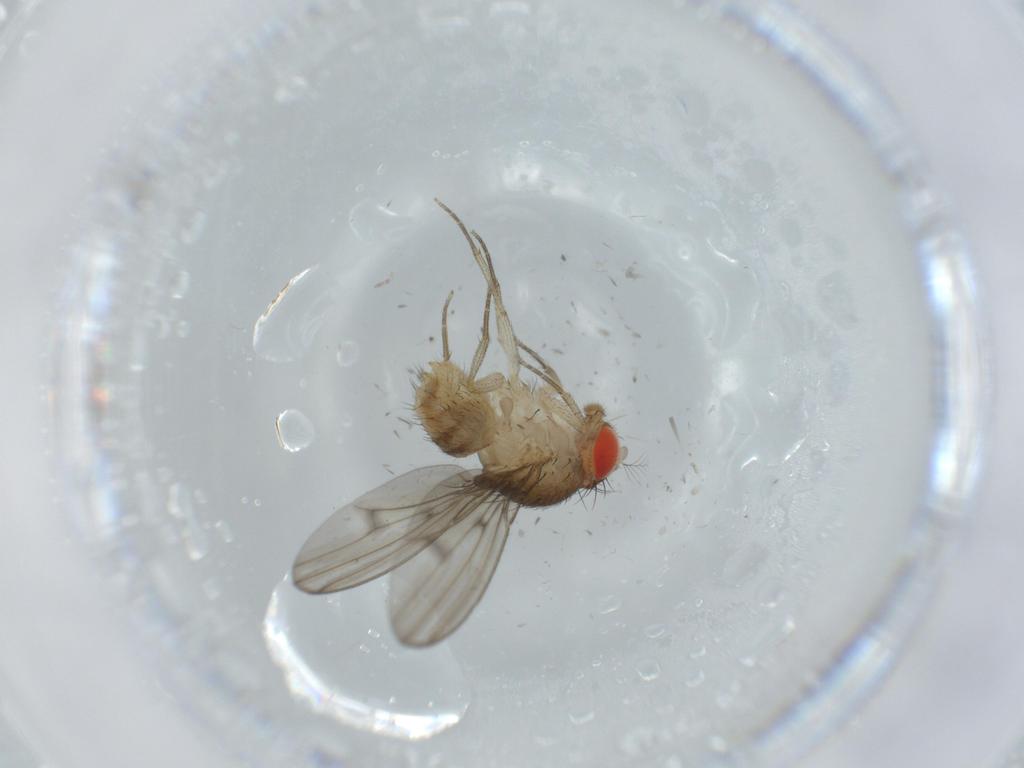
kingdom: Animalia
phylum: Arthropoda
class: Insecta
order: Diptera
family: Drosophilidae
